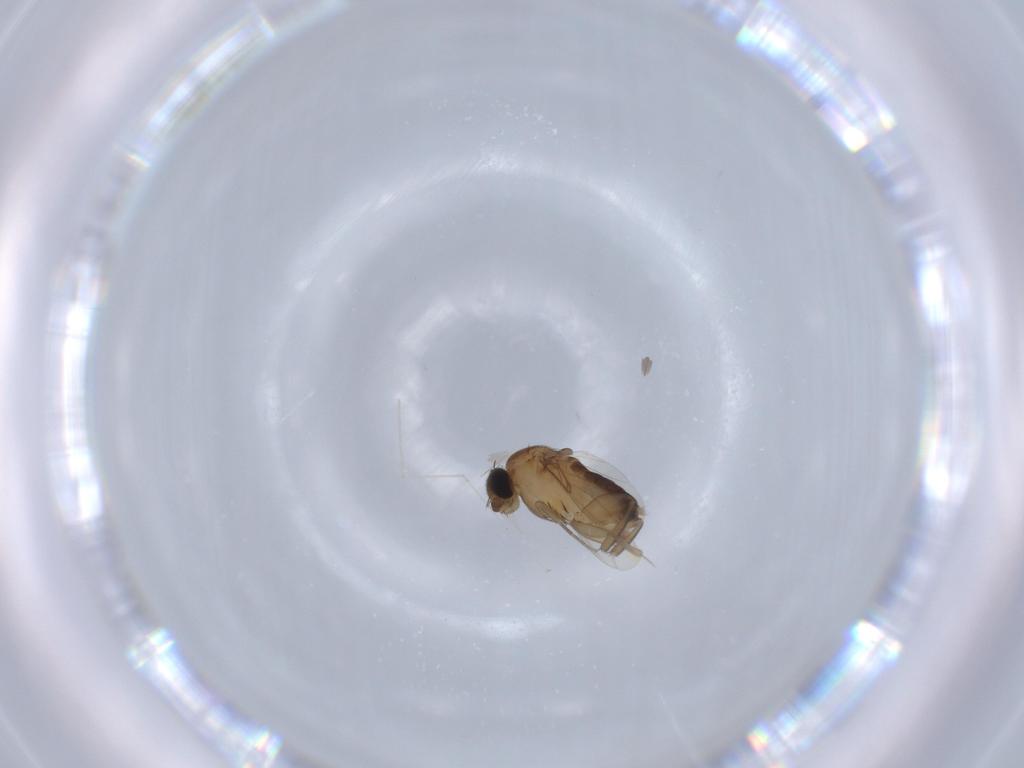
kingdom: Animalia
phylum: Arthropoda
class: Insecta
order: Diptera
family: Phoridae
